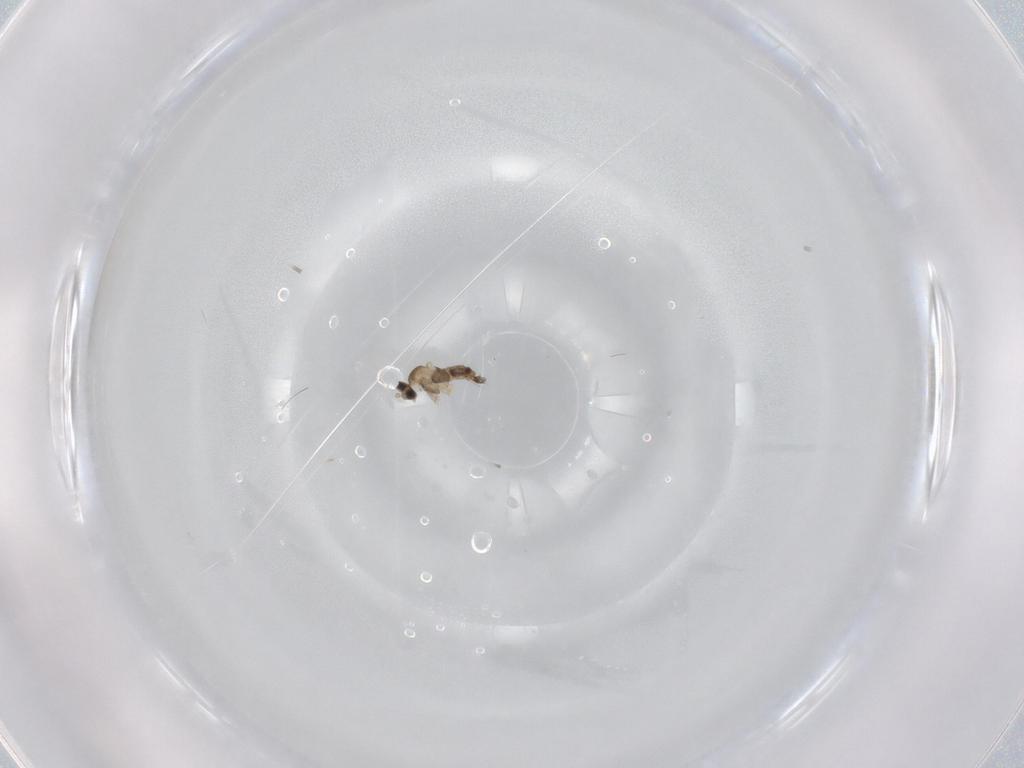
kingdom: Animalia
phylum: Arthropoda
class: Insecta
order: Diptera
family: Cecidomyiidae
